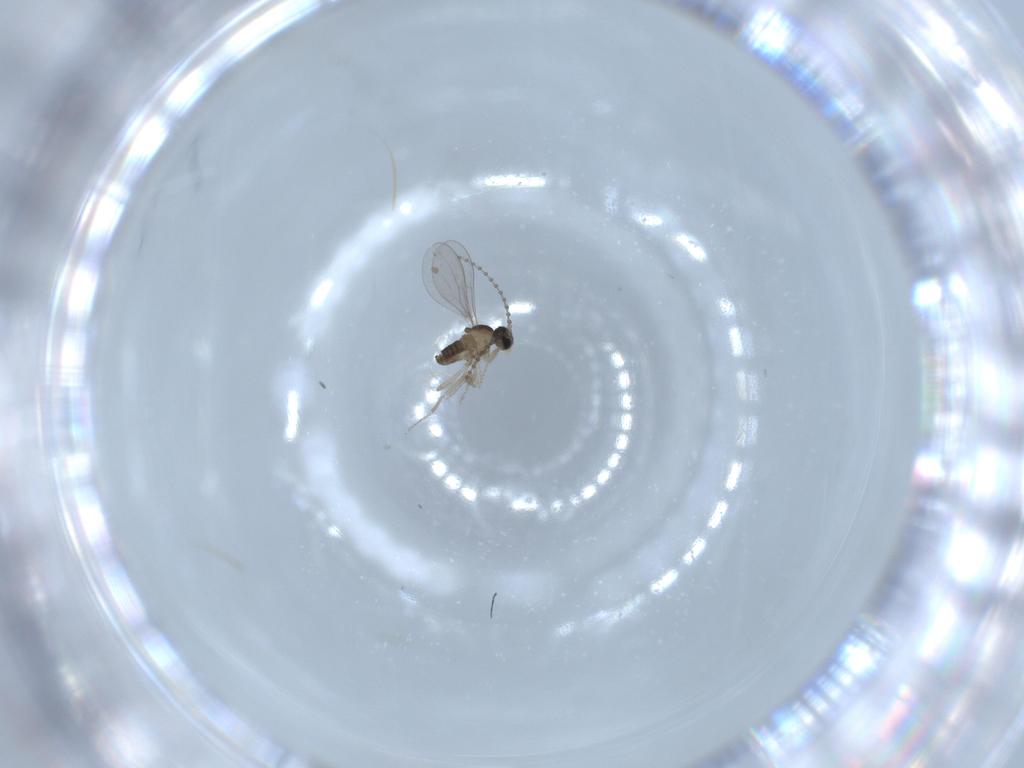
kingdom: Animalia
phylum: Arthropoda
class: Insecta
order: Diptera
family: Cecidomyiidae
